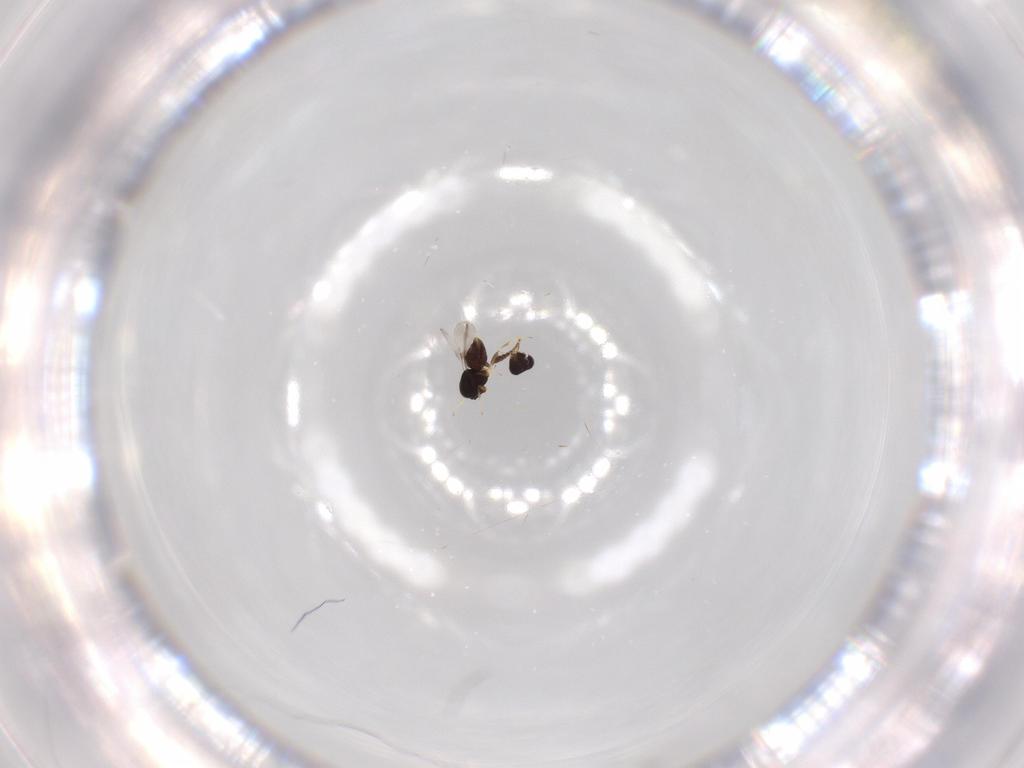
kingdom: Animalia
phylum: Arthropoda
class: Insecta
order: Hymenoptera
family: Ceraphronidae
